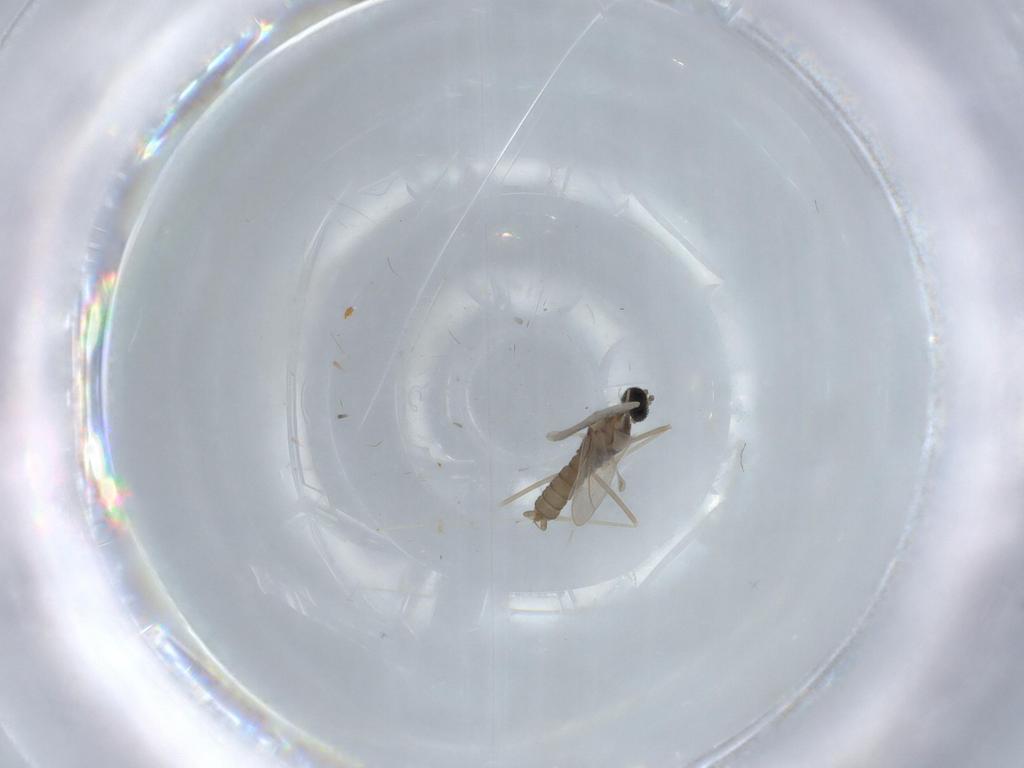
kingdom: Animalia
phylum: Arthropoda
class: Insecta
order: Diptera
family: Cecidomyiidae
